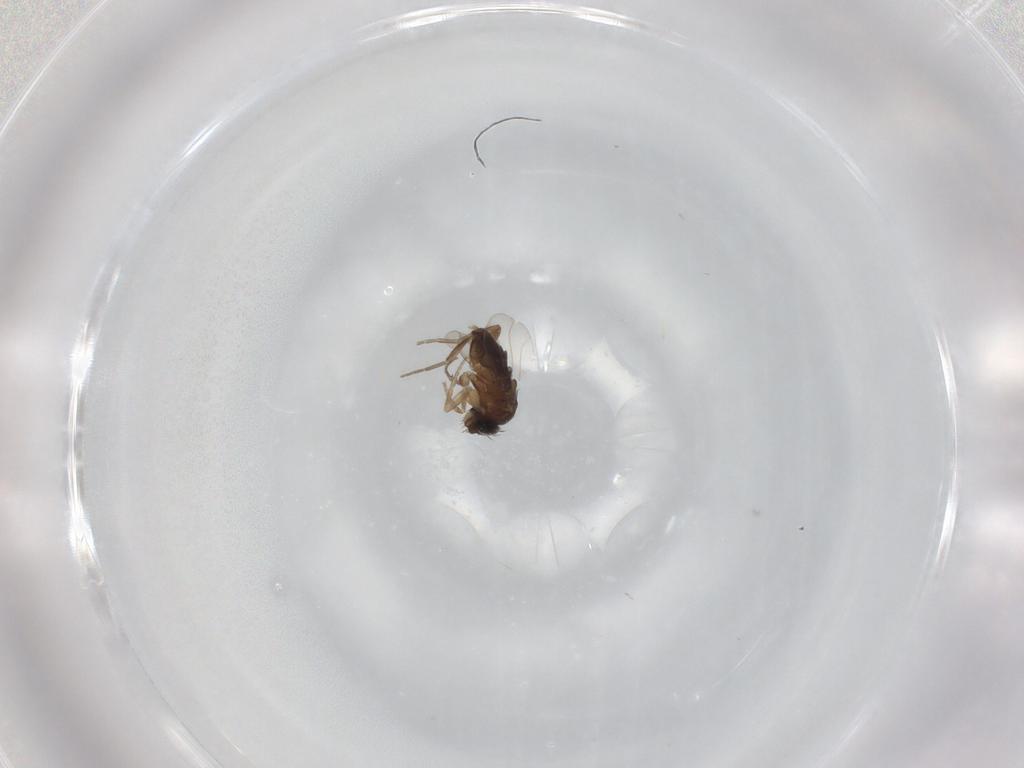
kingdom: Animalia
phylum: Arthropoda
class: Insecta
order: Diptera
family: Phoridae
